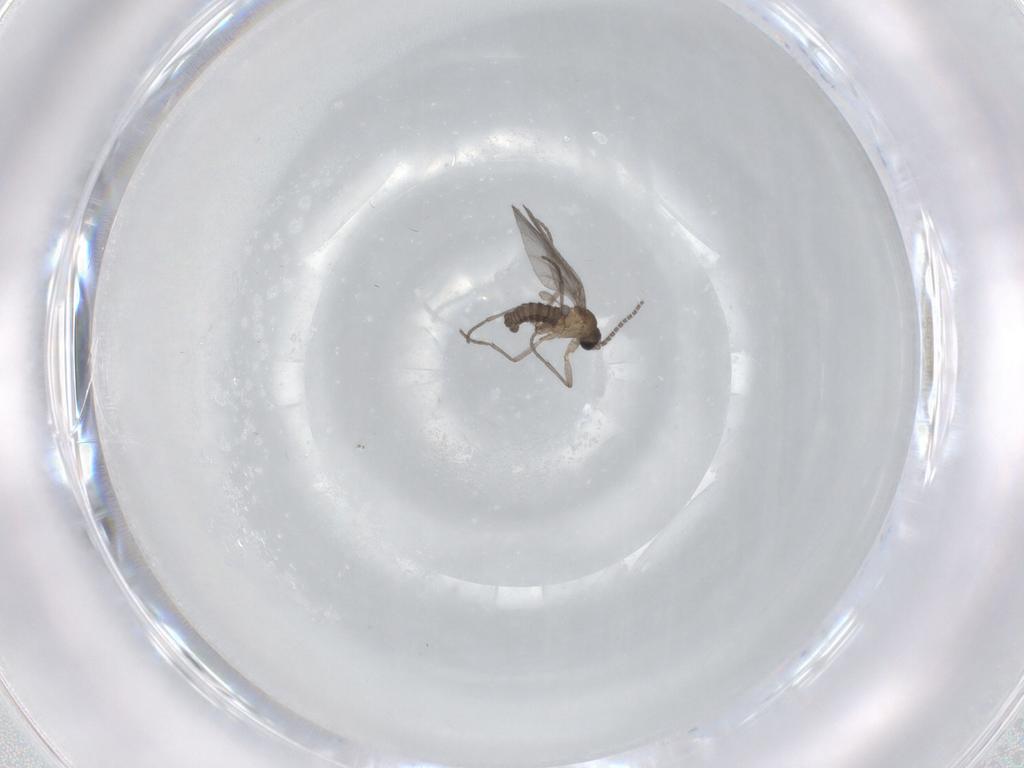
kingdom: Animalia
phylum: Arthropoda
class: Insecta
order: Diptera
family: Sciaridae
